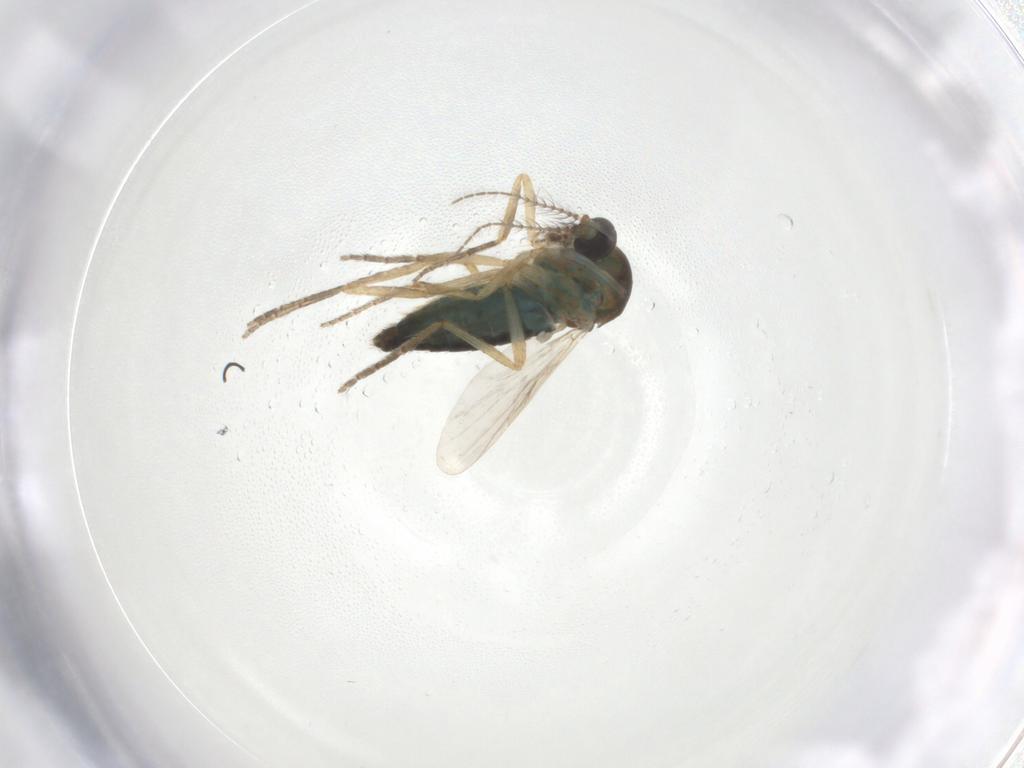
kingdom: Animalia
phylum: Arthropoda
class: Insecta
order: Diptera
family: Ceratopogonidae
